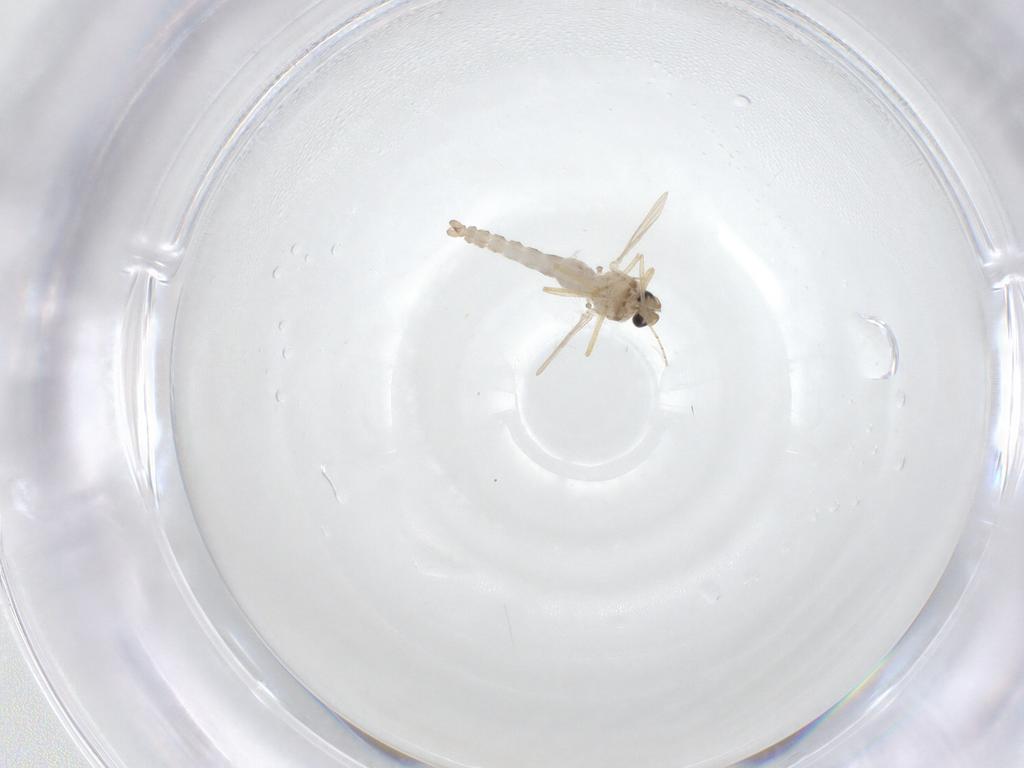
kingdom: Animalia
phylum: Arthropoda
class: Insecta
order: Diptera
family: Ceratopogonidae
